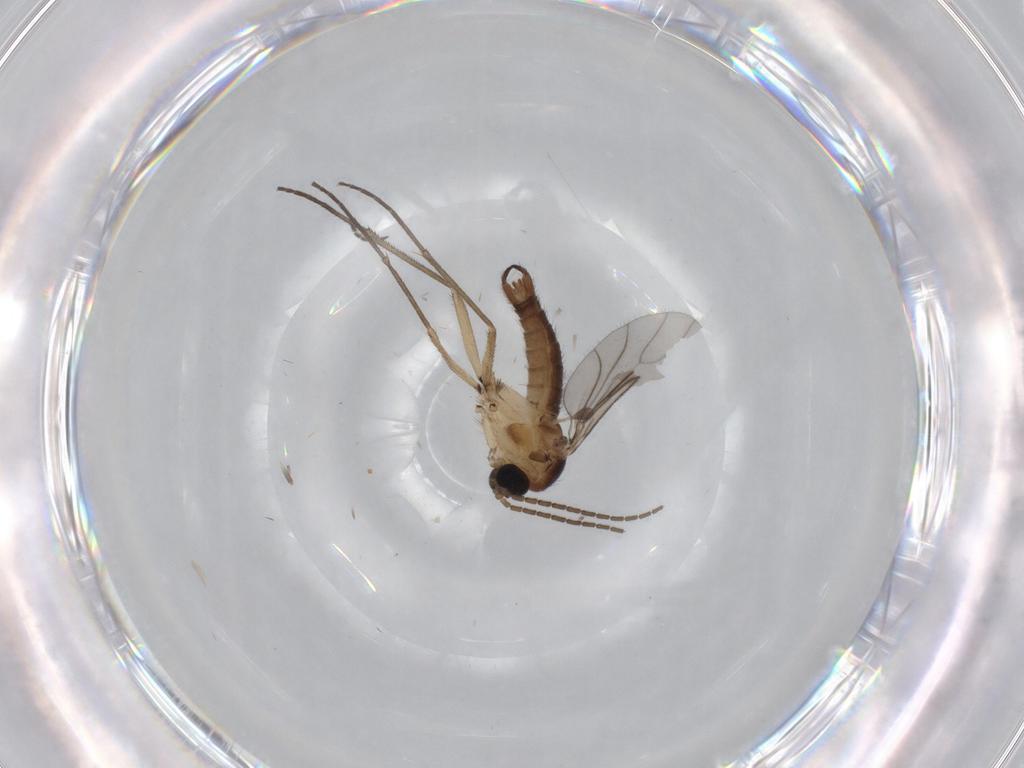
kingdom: Animalia
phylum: Arthropoda
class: Insecta
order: Diptera
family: Sciaridae
